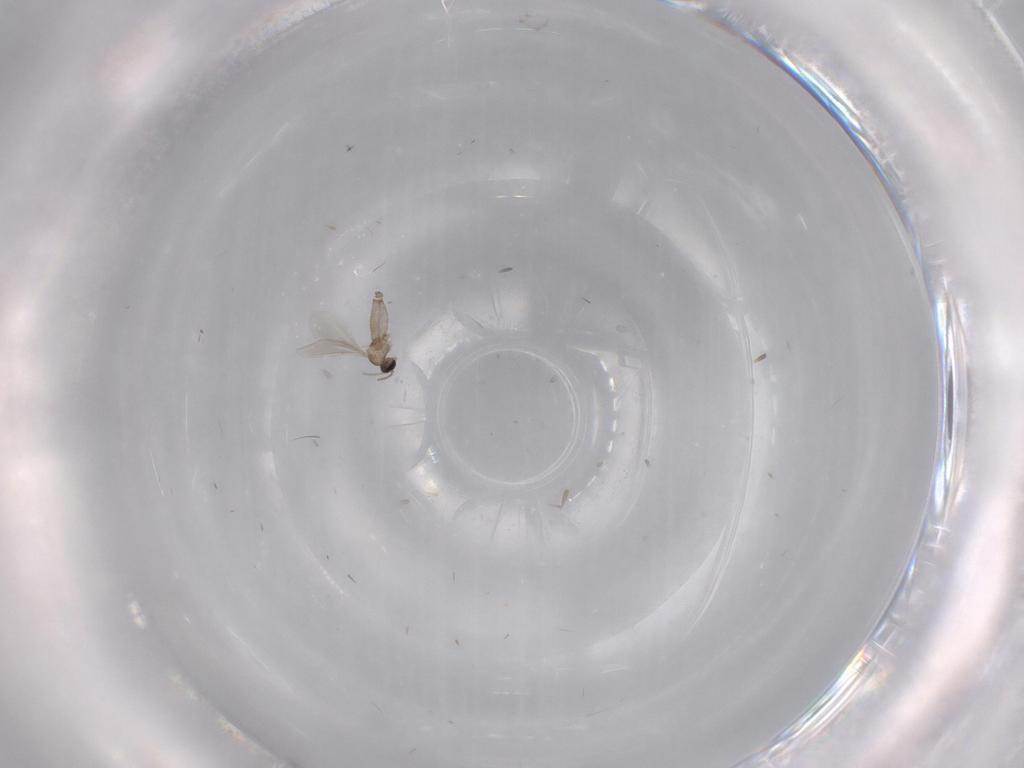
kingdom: Animalia
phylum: Arthropoda
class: Insecta
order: Diptera
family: Cecidomyiidae
